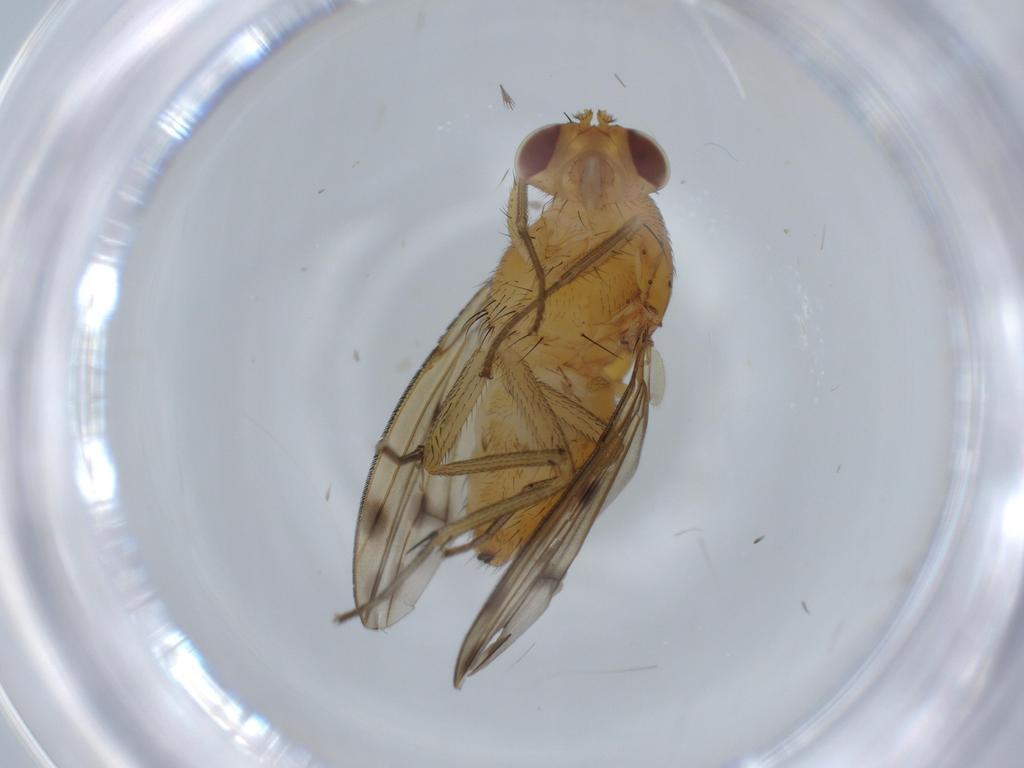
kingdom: Animalia
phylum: Arthropoda
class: Insecta
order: Diptera
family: Lauxaniidae
